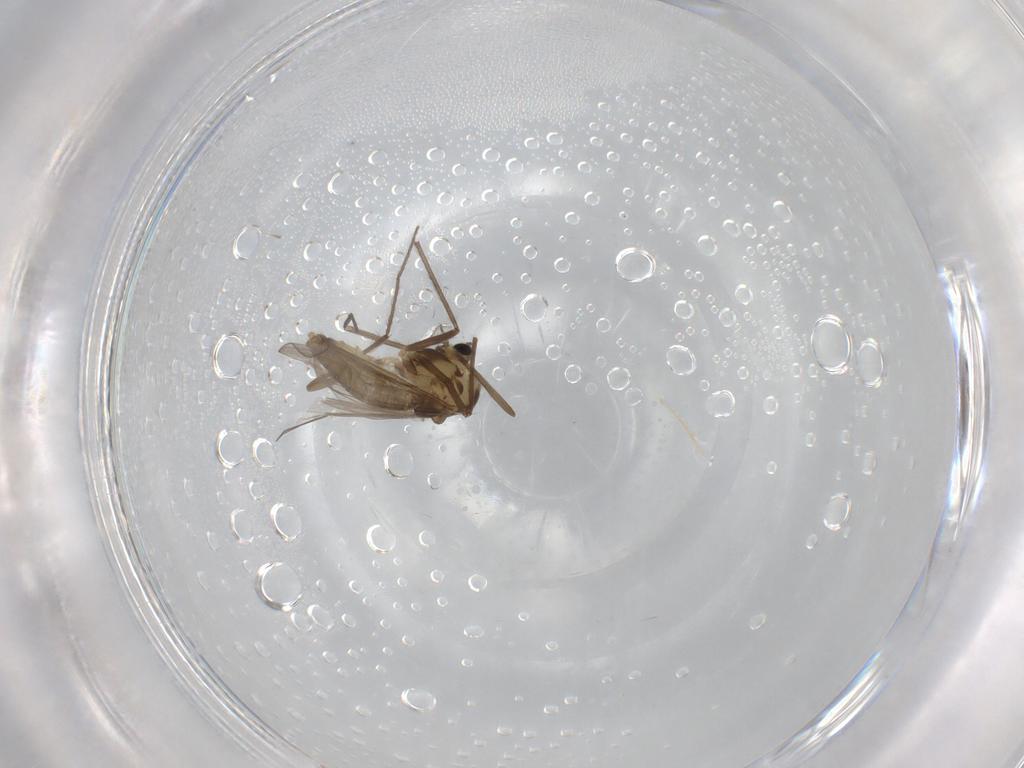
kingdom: Animalia
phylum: Arthropoda
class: Insecta
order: Diptera
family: Chironomidae
